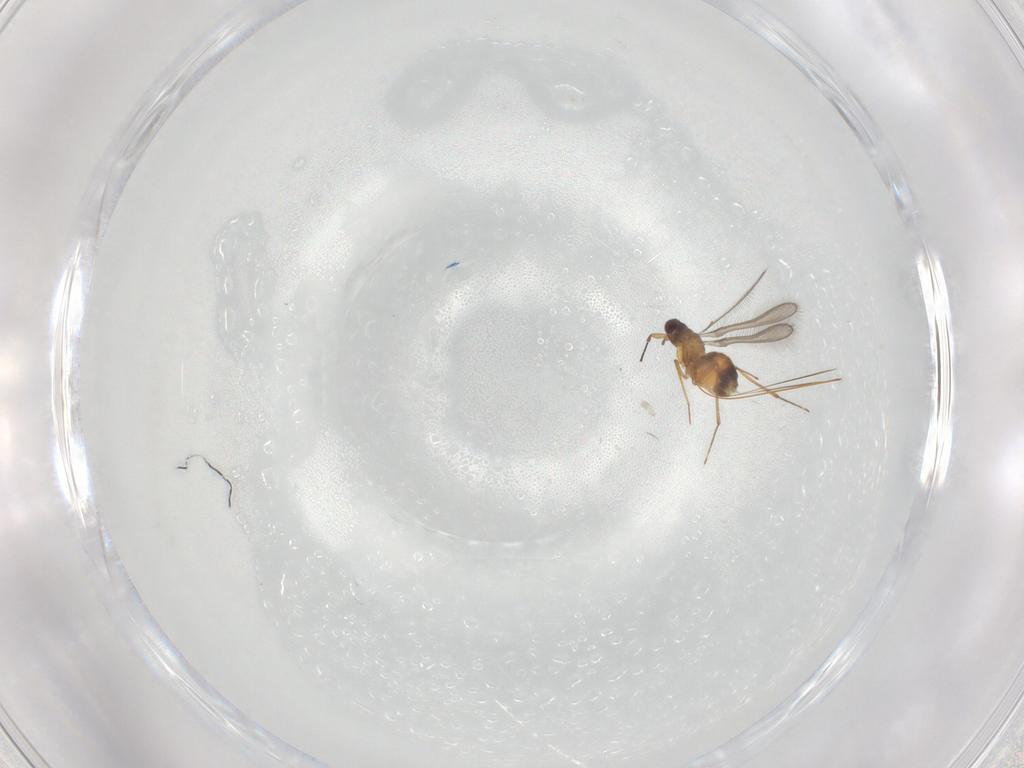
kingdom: Animalia
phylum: Arthropoda
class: Insecta
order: Hymenoptera
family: Mymaridae
